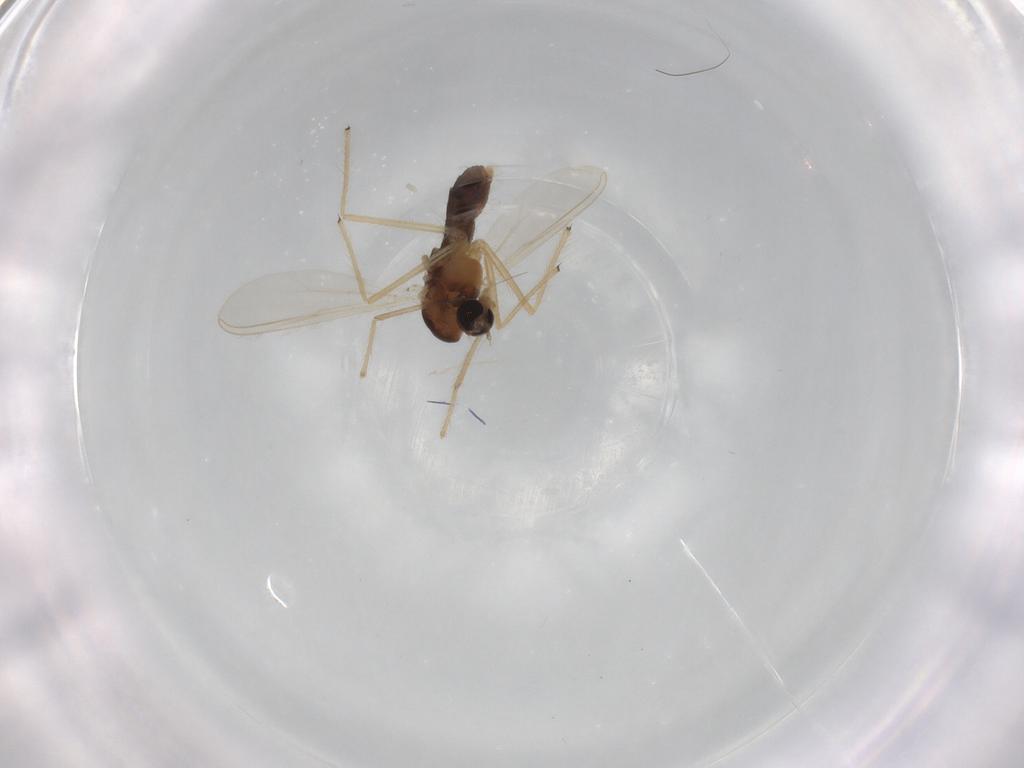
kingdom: Animalia
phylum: Arthropoda
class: Insecta
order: Diptera
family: Chironomidae
